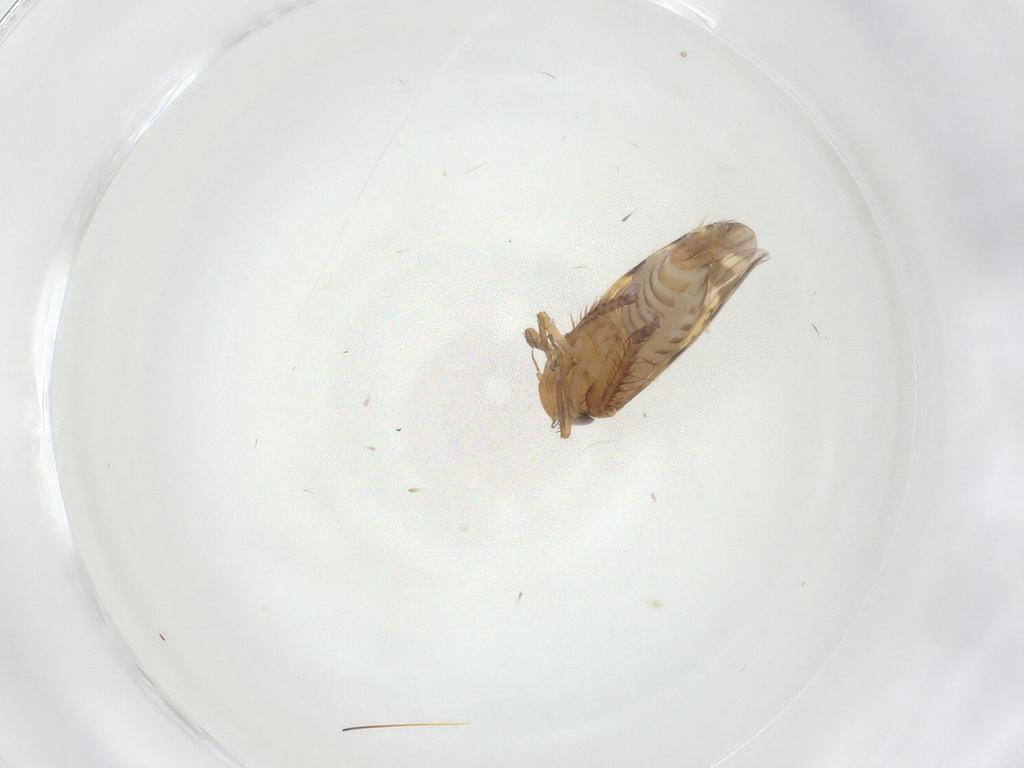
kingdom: Animalia
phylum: Arthropoda
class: Insecta
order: Hemiptera
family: Cicadellidae
